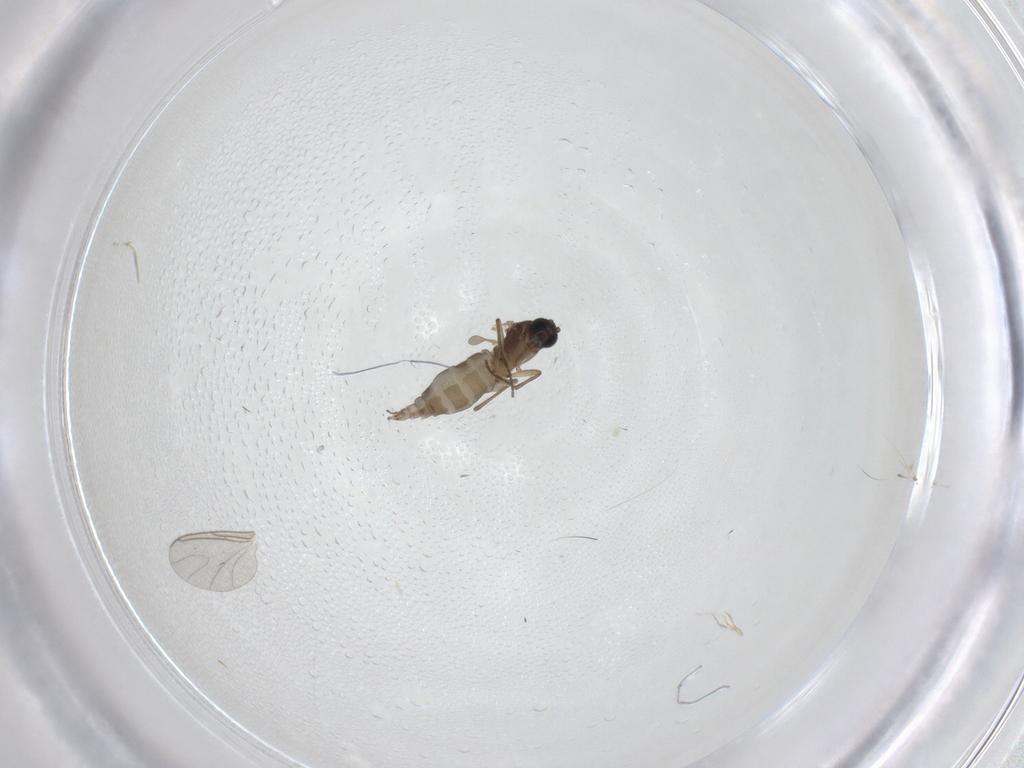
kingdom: Animalia
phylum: Arthropoda
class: Insecta
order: Diptera
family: Sciaridae
